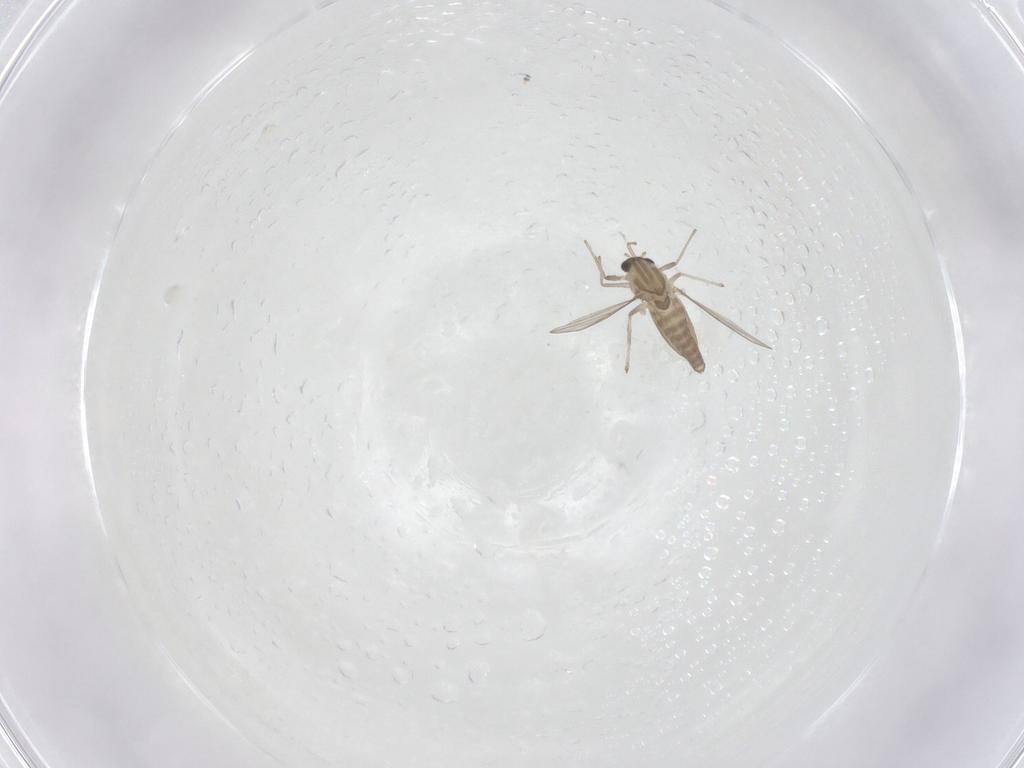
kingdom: Animalia
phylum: Arthropoda
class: Insecta
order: Diptera
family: Chironomidae
